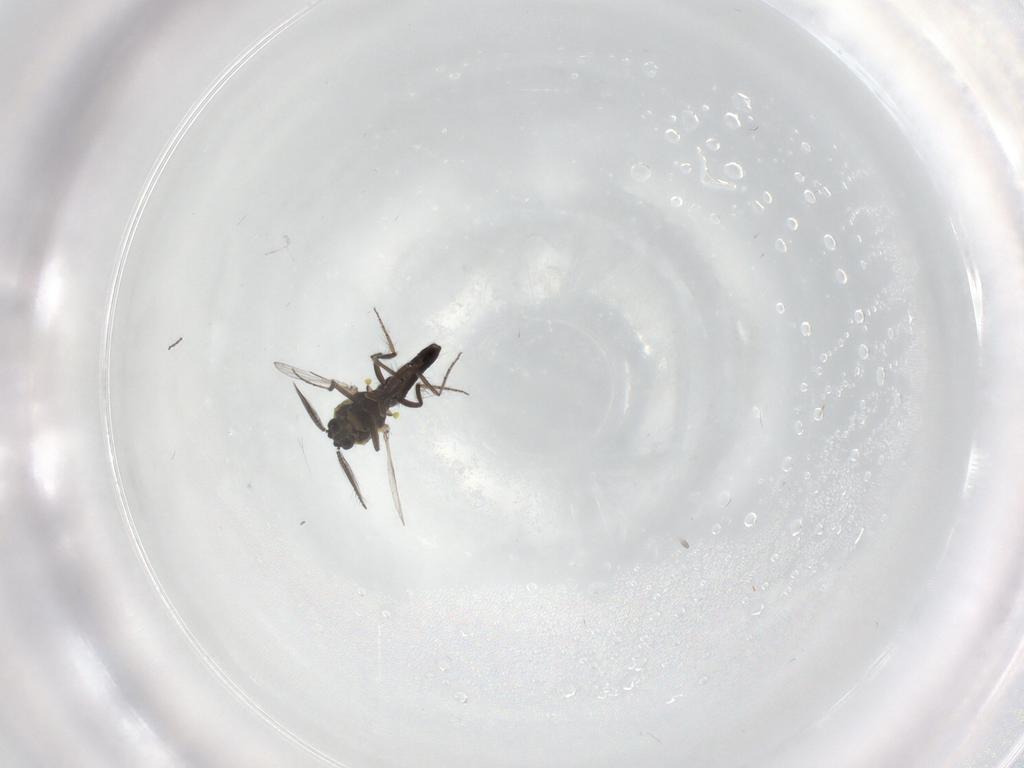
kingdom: Animalia
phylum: Arthropoda
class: Insecta
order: Diptera
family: Ceratopogonidae
